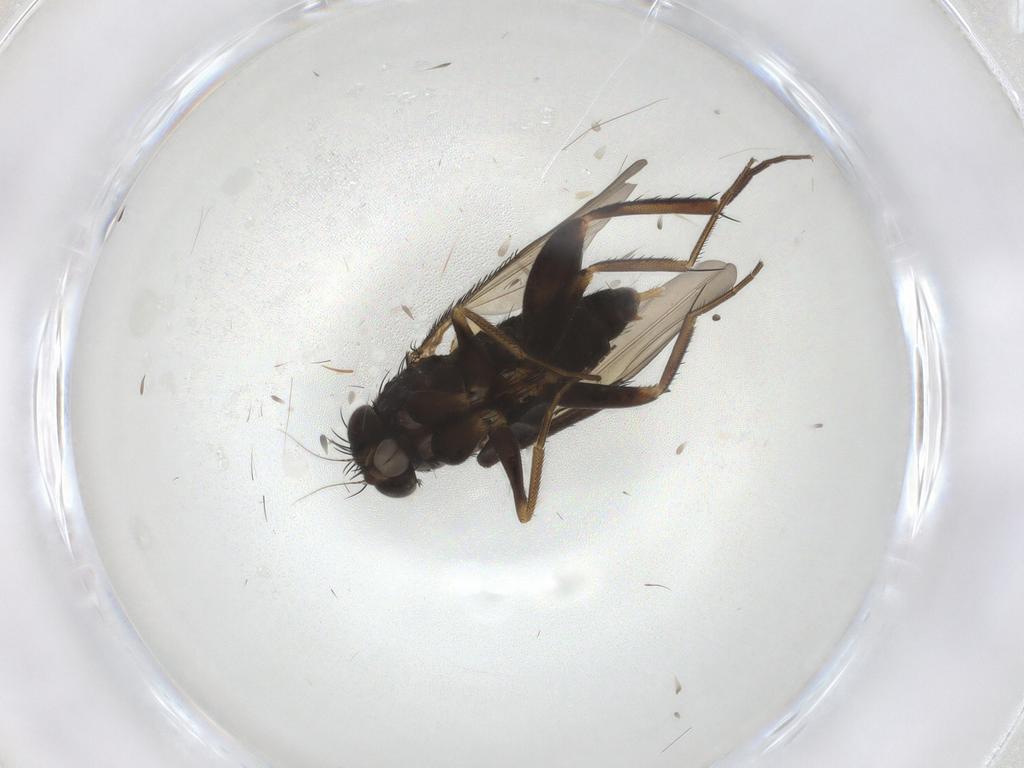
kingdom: Animalia
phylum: Arthropoda
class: Insecta
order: Diptera
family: Phoridae
